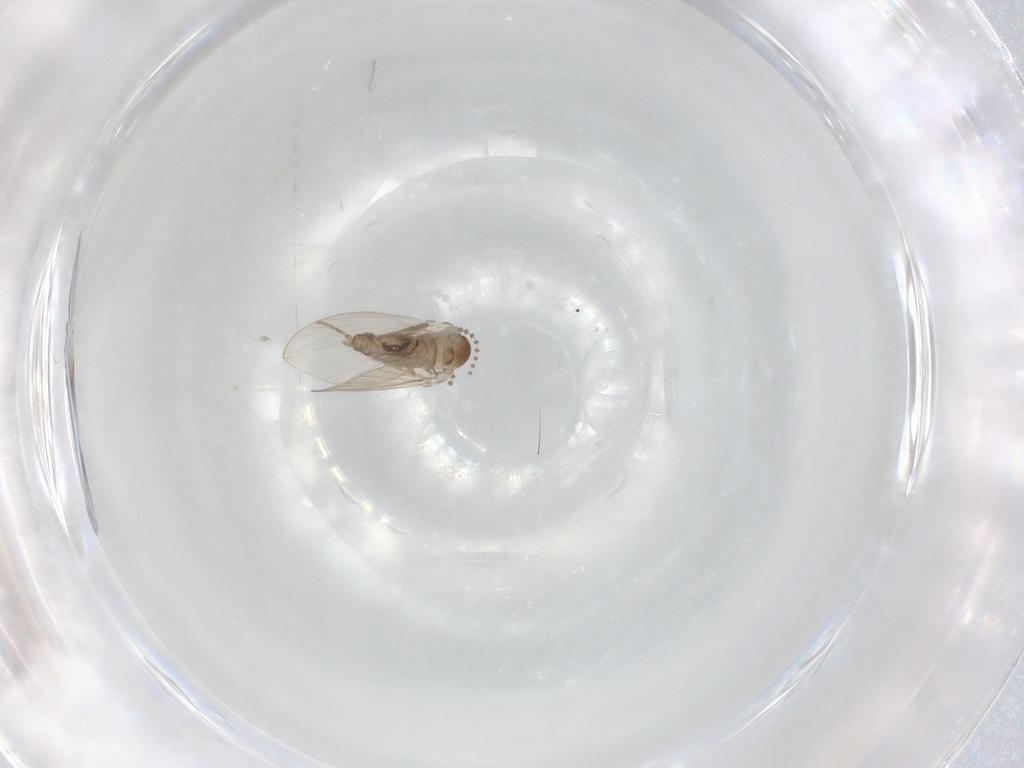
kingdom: Animalia
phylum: Arthropoda
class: Insecta
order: Diptera
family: Psychodidae
